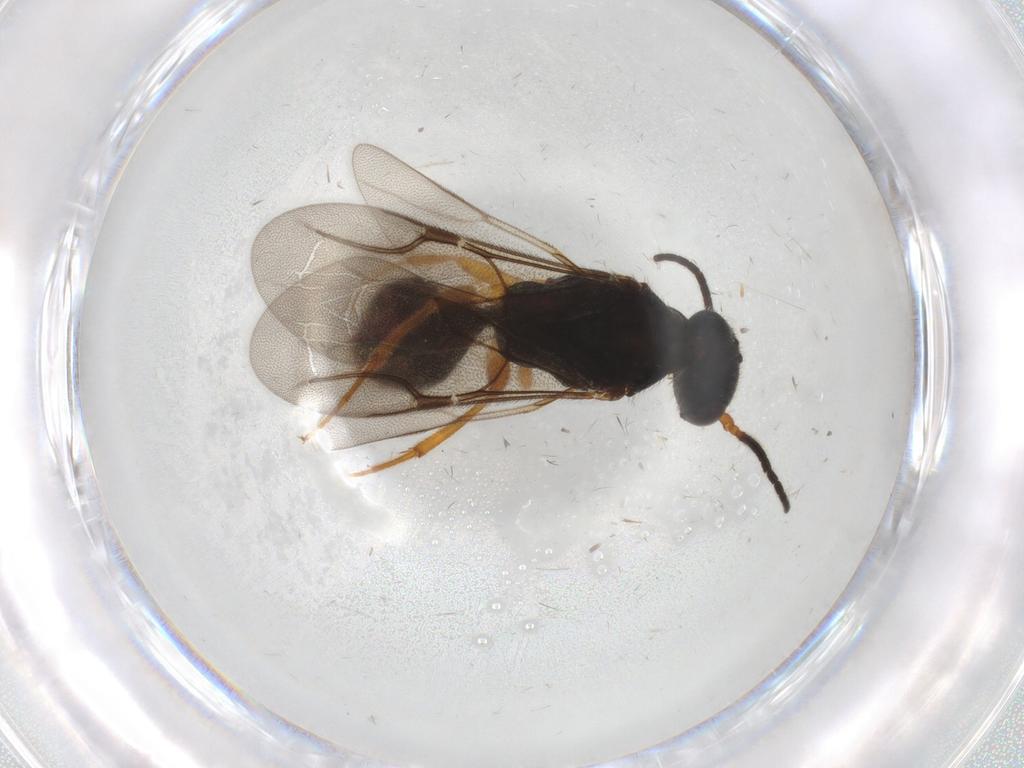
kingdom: Animalia
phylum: Arthropoda
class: Insecta
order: Hymenoptera
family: Bethylidae
